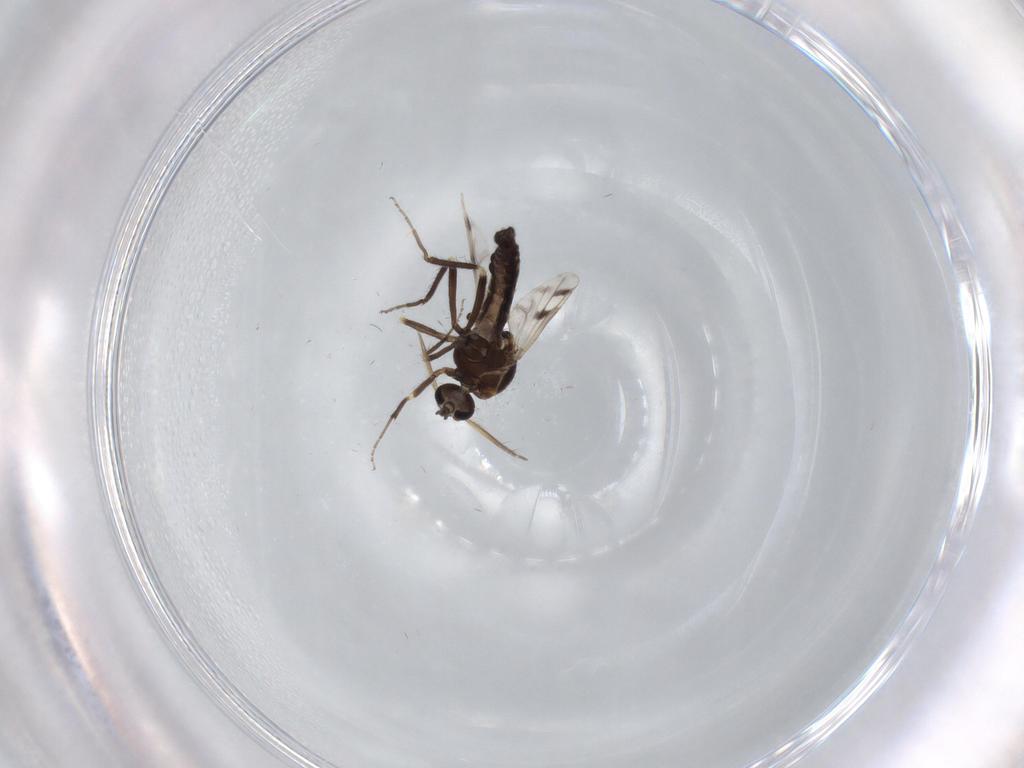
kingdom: Animalia
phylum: Arthropoda
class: Insecta
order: Diptera
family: Ceratopogonidae
